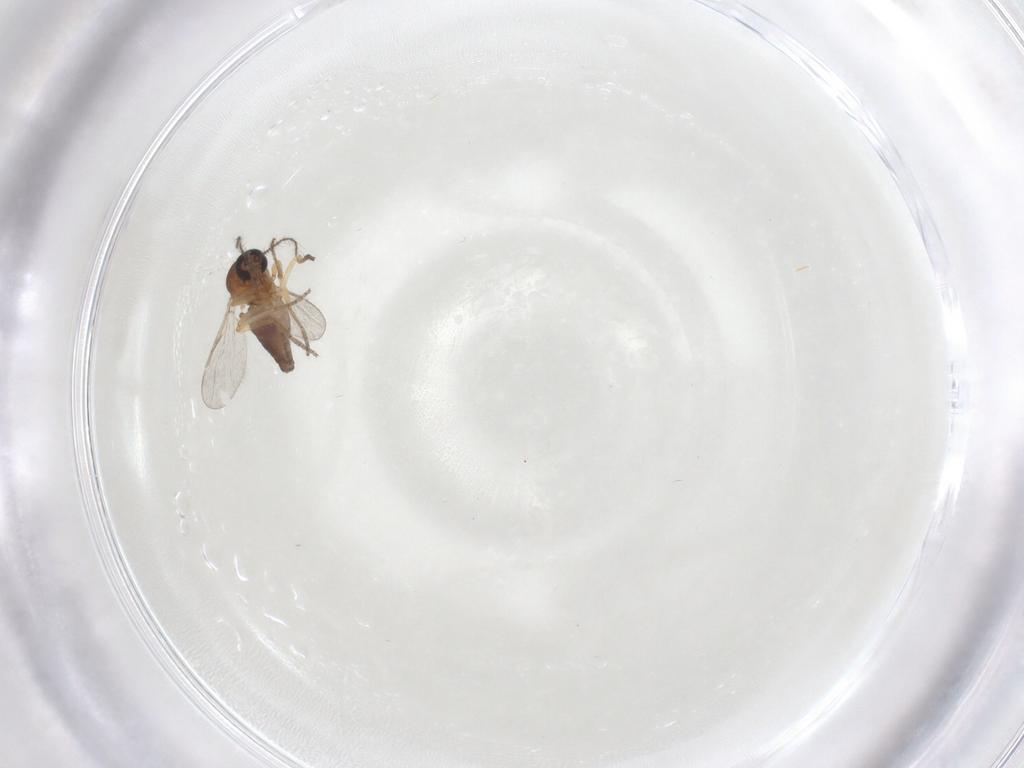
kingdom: Animalia
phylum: Arthropoda
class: Insecta
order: Diptera
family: Ceratopogonidae
